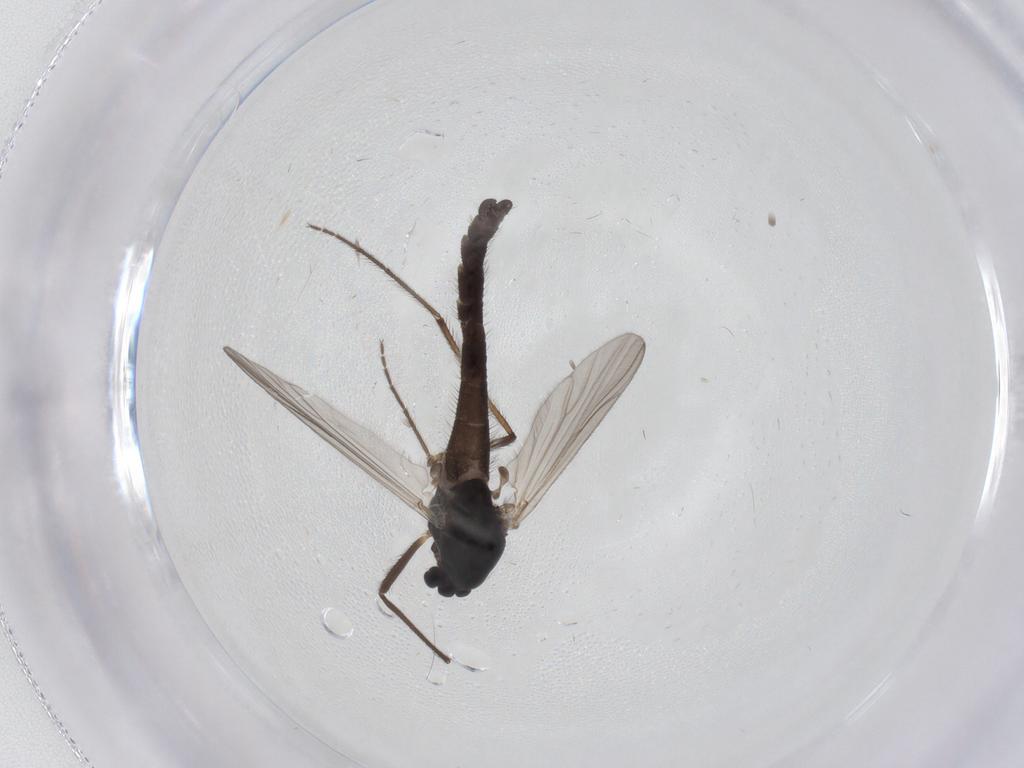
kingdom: Animalia
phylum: Arthropoda
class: Insecta
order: Diptera
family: Chironomidae
